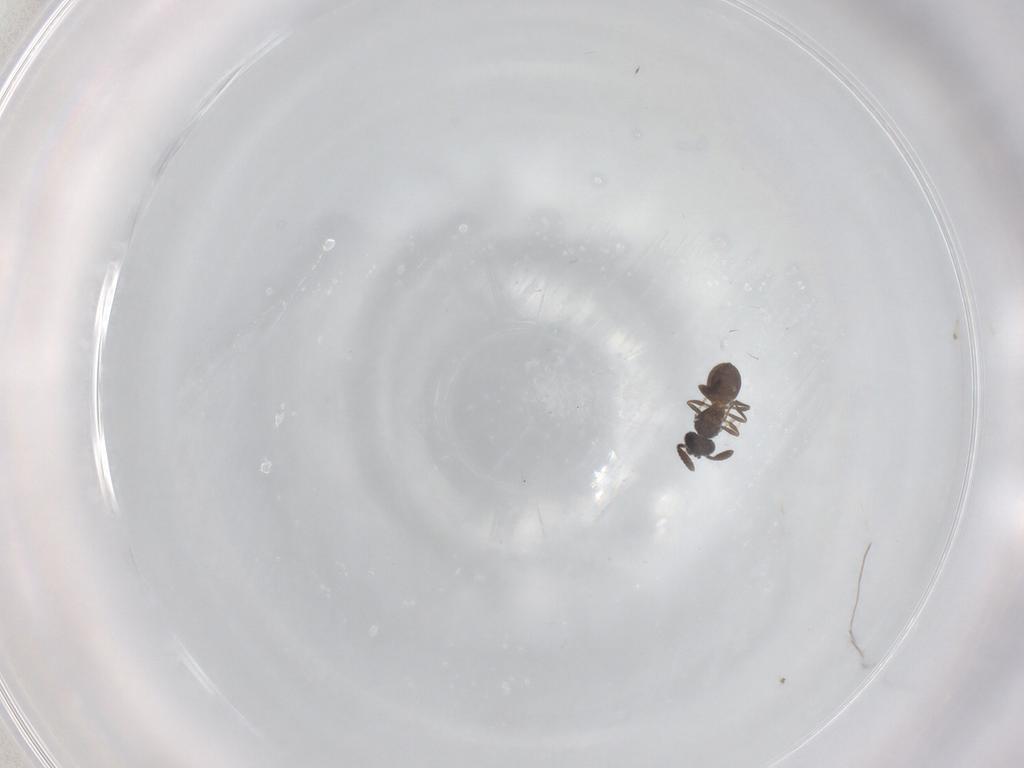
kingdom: Animalia
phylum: Arthropoda
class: Insecta
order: Hymenoptera
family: Scelionidae
